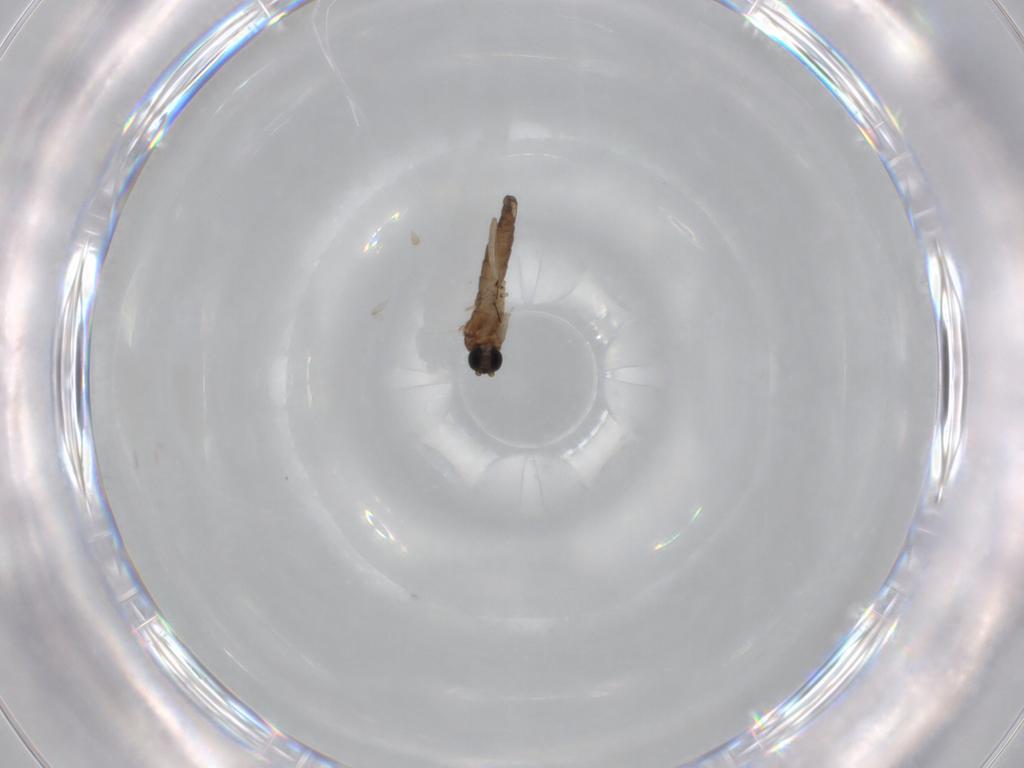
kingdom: Animalia
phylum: Arthropoda
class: Insecta
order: Diptera
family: Sciaridae
